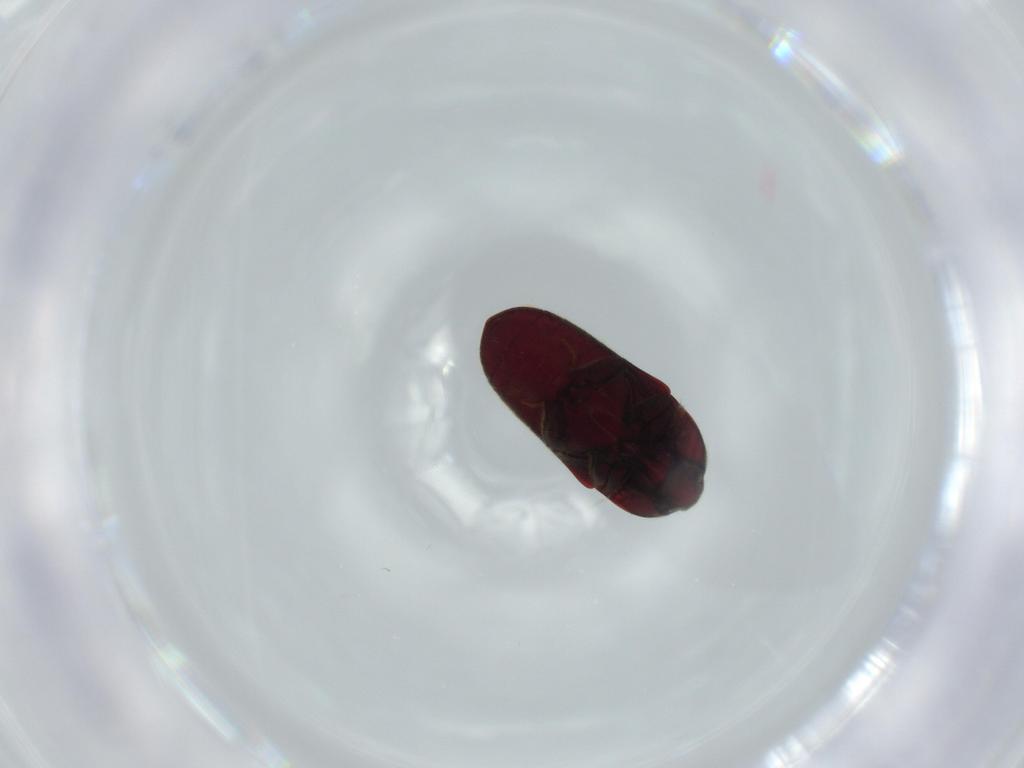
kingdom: Animalia
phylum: Arthropoda
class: Insecta
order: Coleoptera
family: Throscidae
